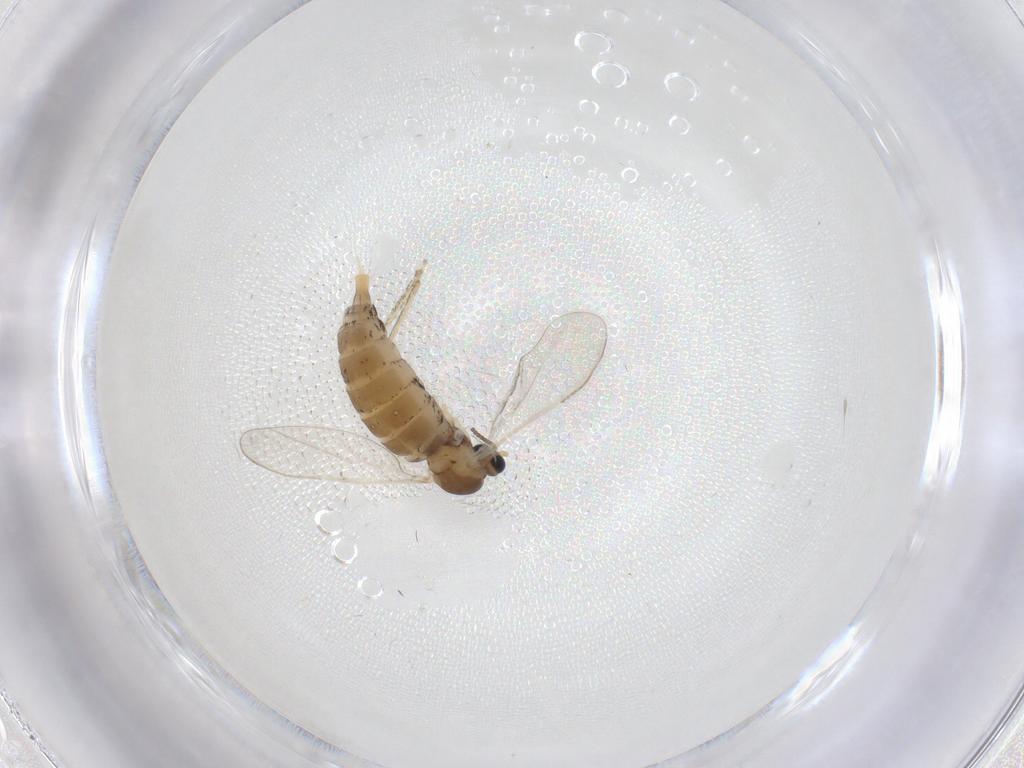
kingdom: Animalia
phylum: Arthropoda
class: Insecta
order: Diptera
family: Cecidomyiidae
